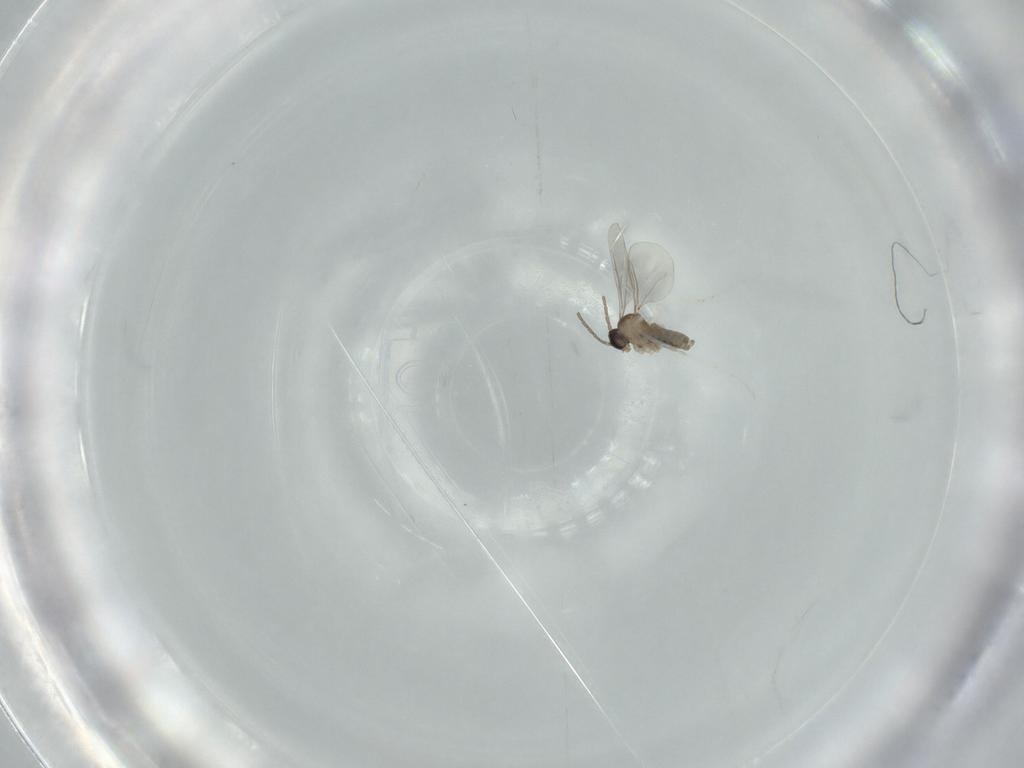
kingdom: Animalia
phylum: Arthropoda
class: Insecta
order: Diptera
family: Cecidomyiidae
